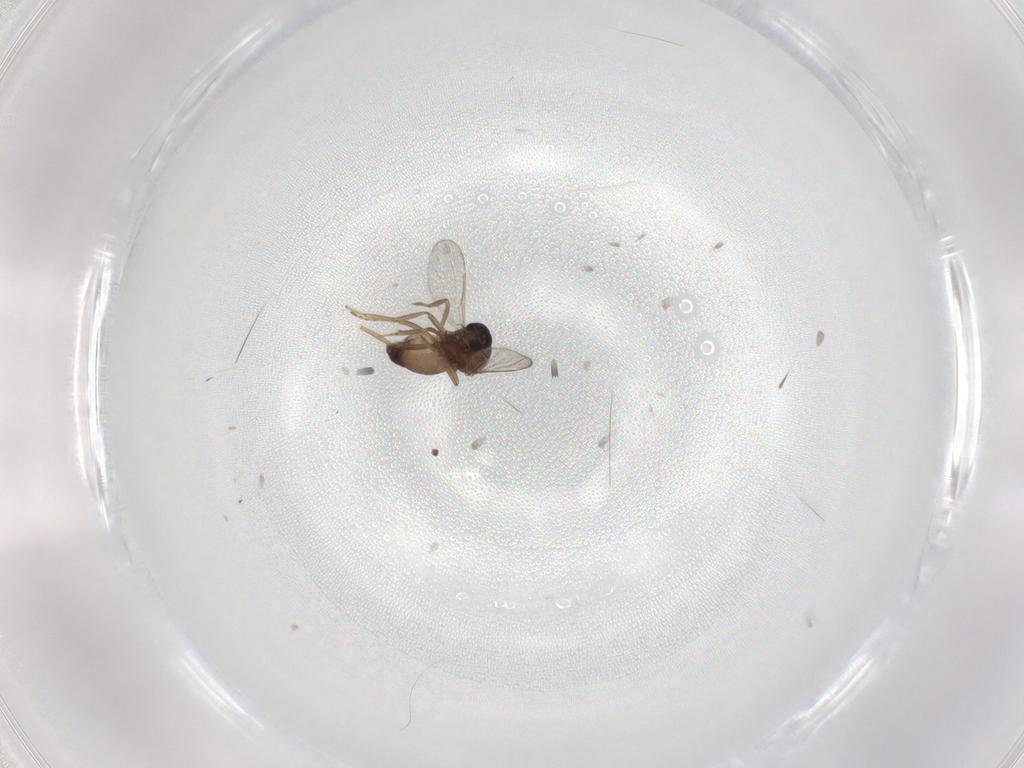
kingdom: Animalia
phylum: Arthropoda
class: Insecta
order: Diptera
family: Ceratopogonidae
